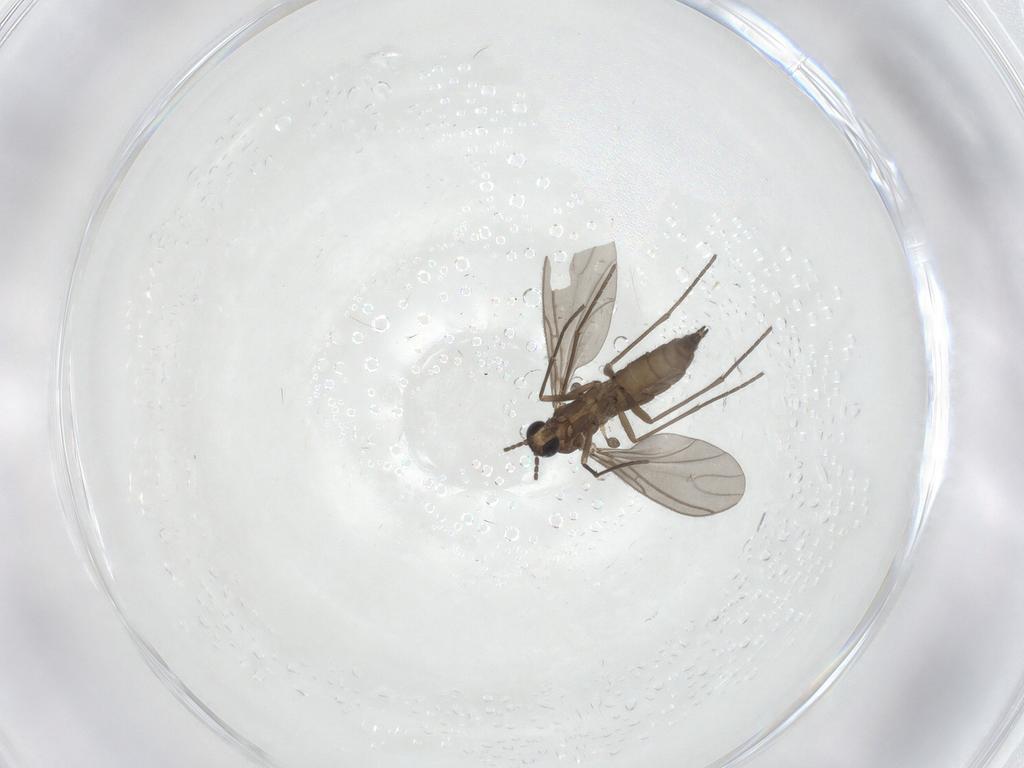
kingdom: Animalia
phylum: Arthropoda
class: Insecta
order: Diptera
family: Sciaridae
